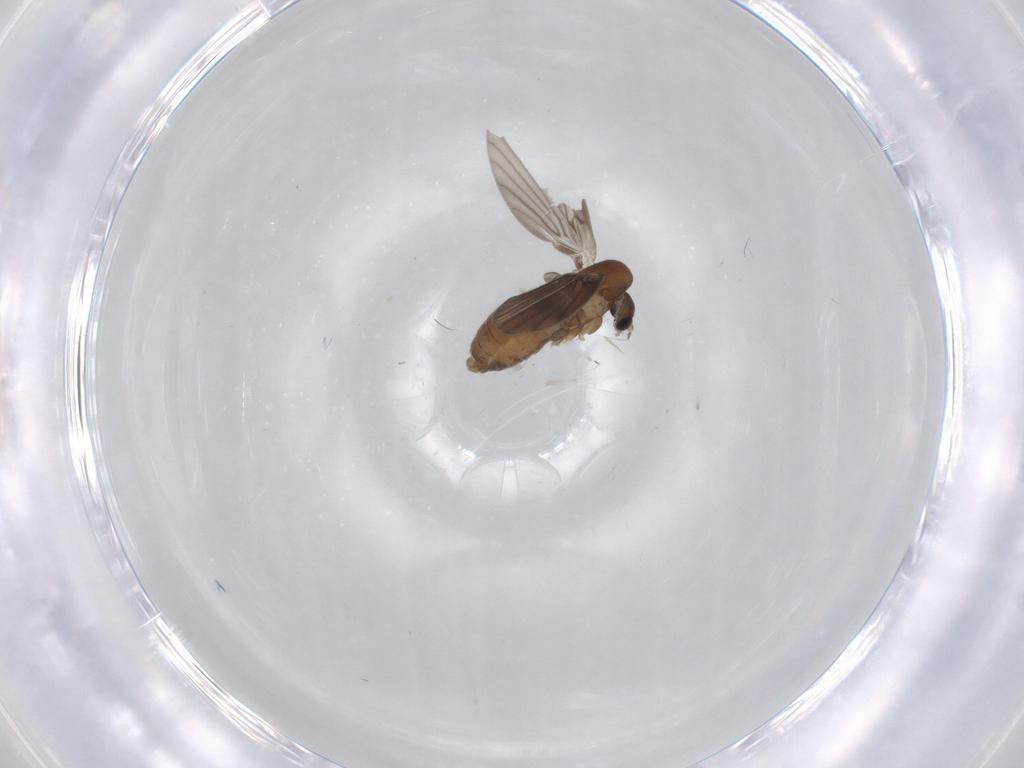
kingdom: Animalia
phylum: Arthropoda
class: Insecta
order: Diptera
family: Psychodidae
